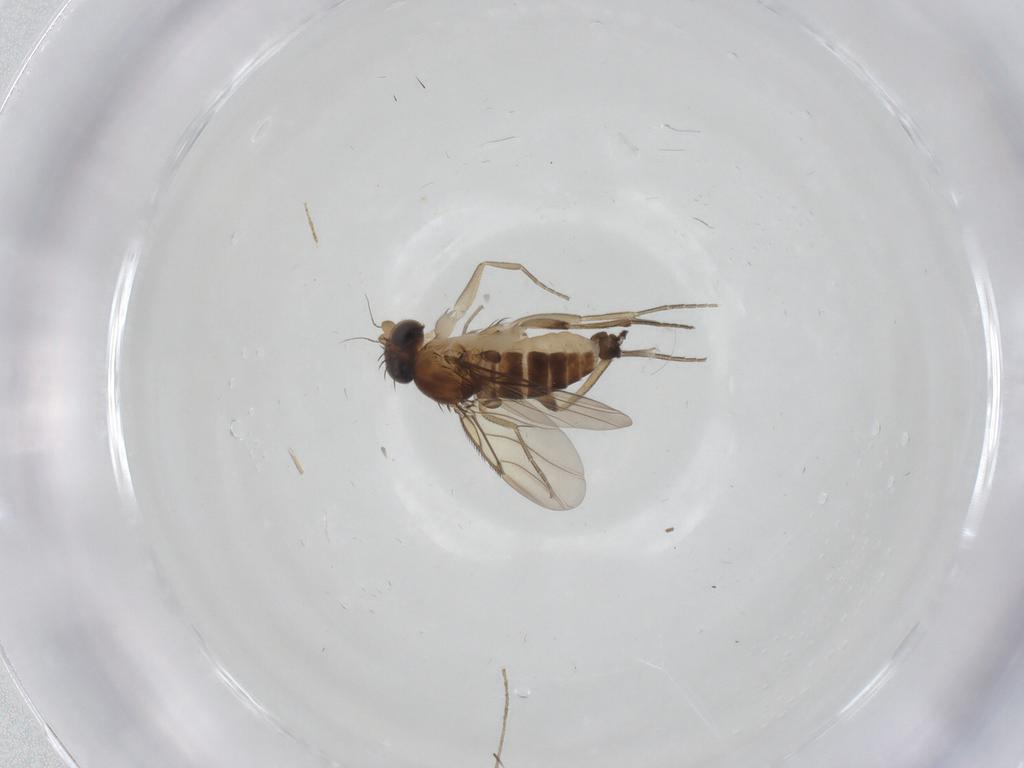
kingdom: Animalia
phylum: Arthropoda
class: Insecta
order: Diptera
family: Phoridae
